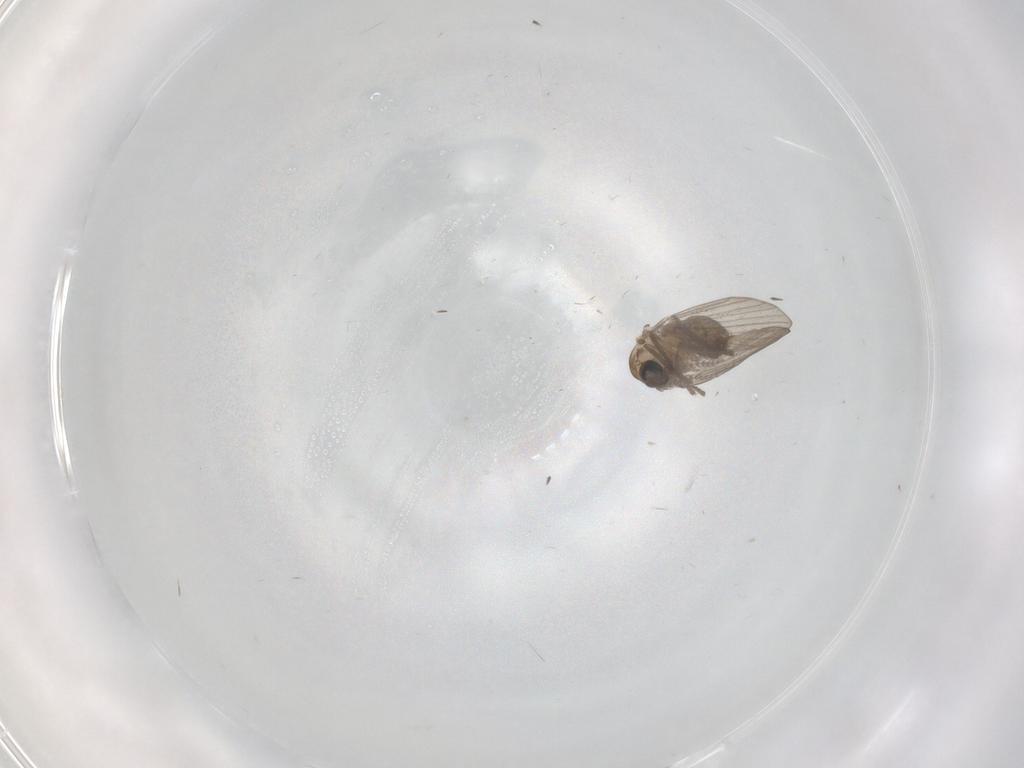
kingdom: Animalia
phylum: Arthropoda
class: Insecta
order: Diptera
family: Psychodidae
